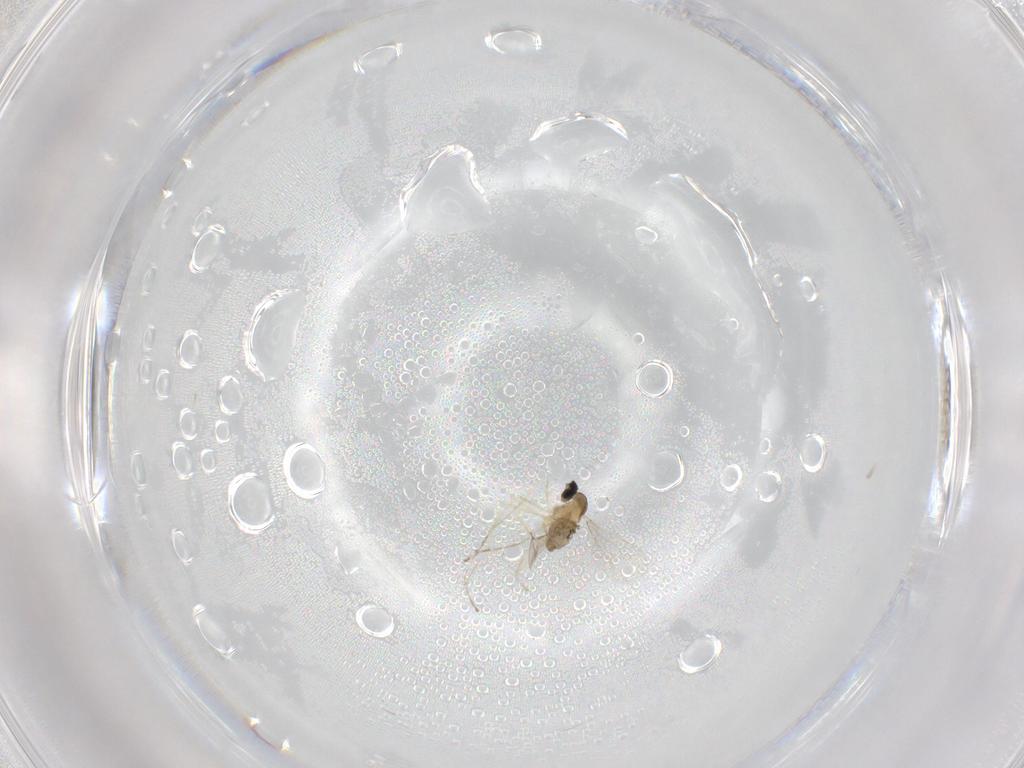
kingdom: Animalia
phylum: Arthropoda
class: Insecta
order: Diptera
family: Cecidomyiidae
